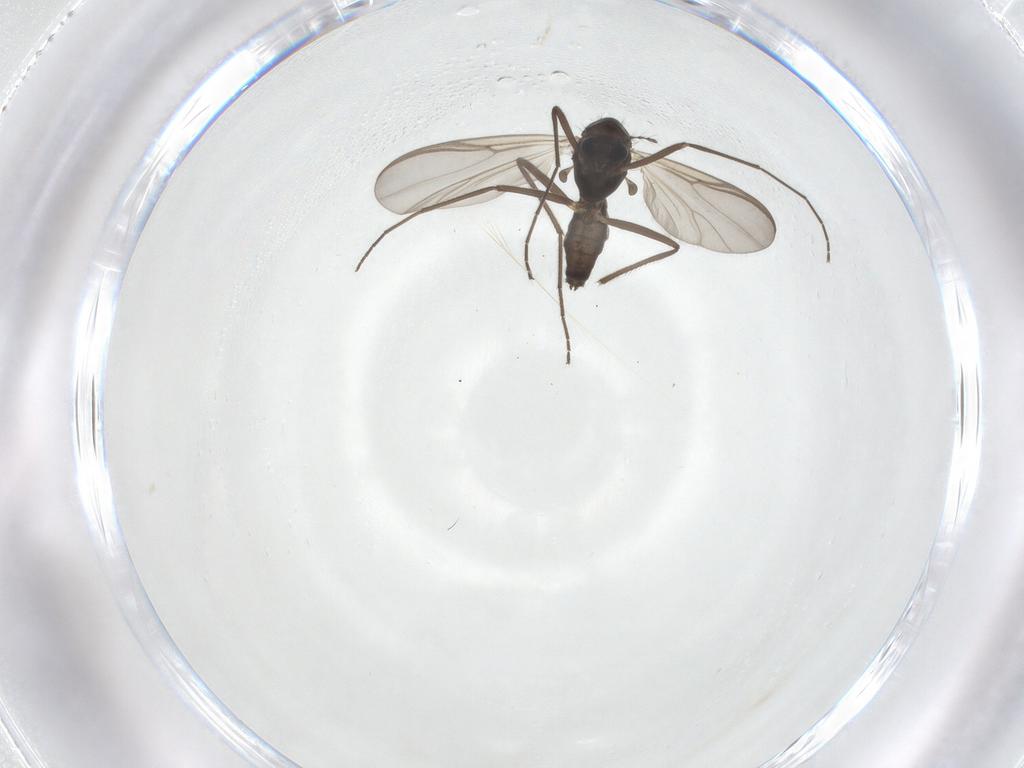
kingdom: Animalia
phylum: Arthropoda
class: Insecta
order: Diptera
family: Chironomidae
